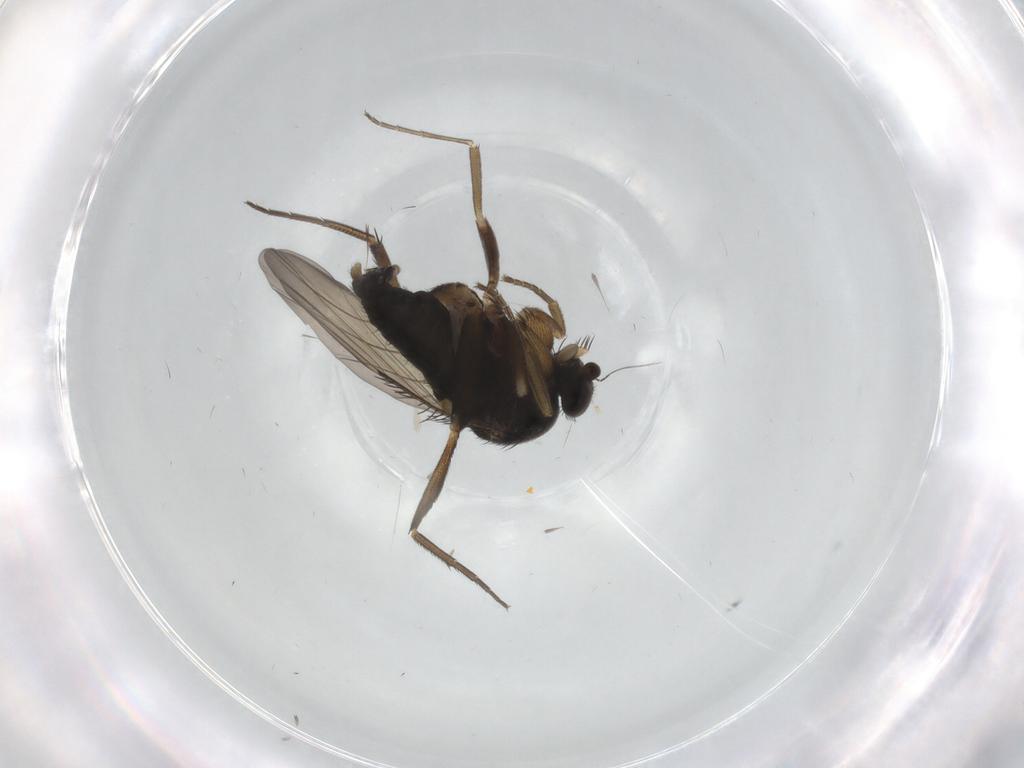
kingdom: Animalia
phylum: Arthropoda
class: Insecta
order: Diptera
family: Phoridae
